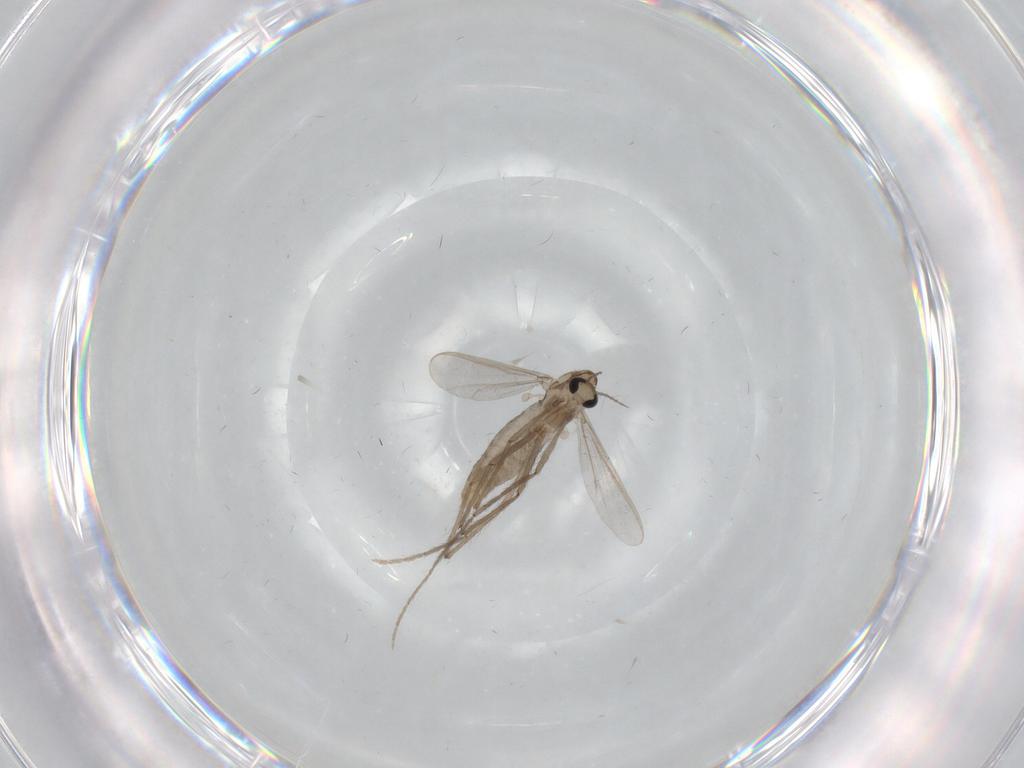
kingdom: Animalia
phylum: Arthropoda
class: Insecta
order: Diptera
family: Chironomidae
